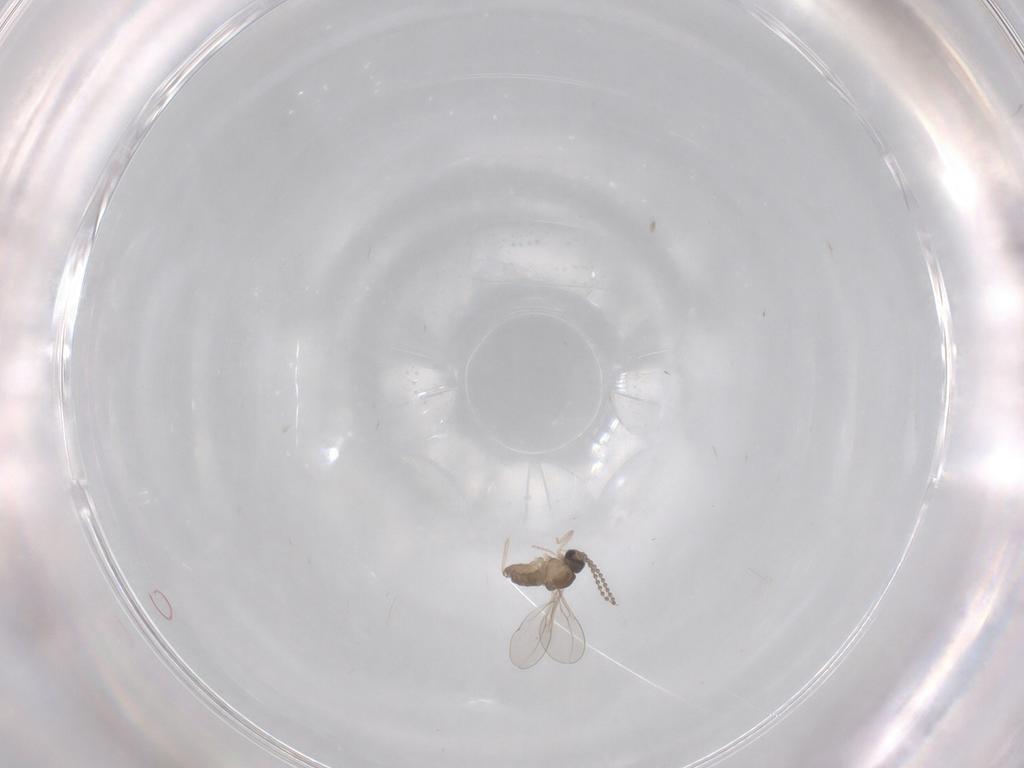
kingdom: Animalia
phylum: Arthropoda
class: Insecta
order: Diptera
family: Cecidomyiidae
